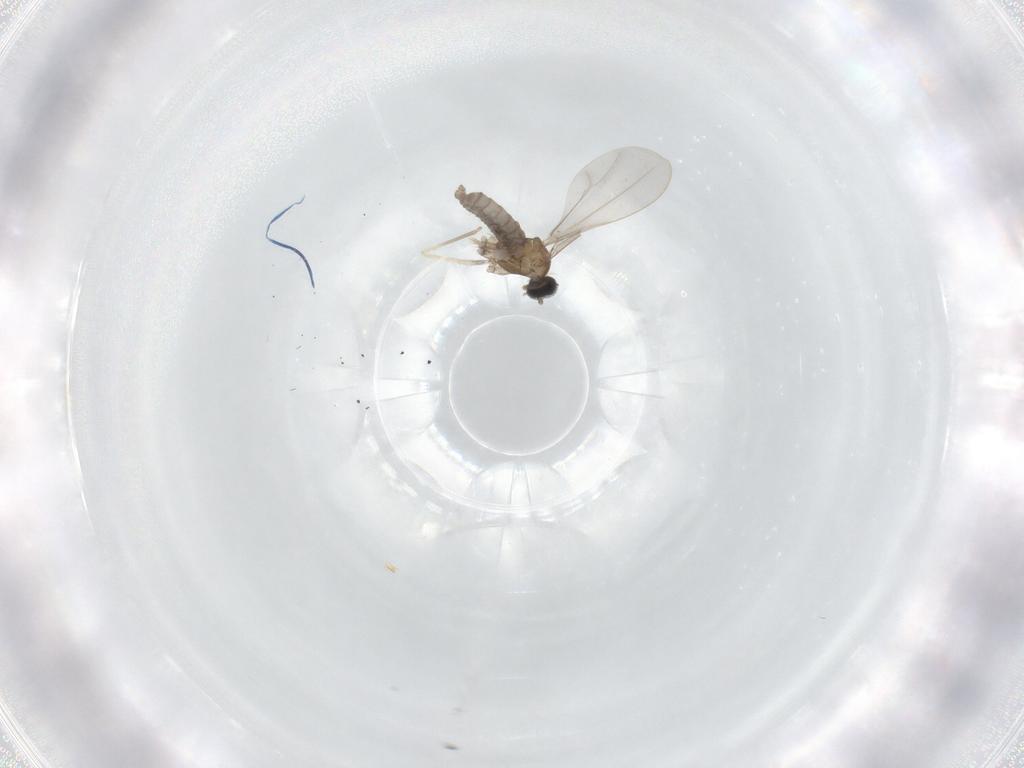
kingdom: Animalia
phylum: Arthropoda
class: Insecta
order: Diptera
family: Cecidomyiidae
